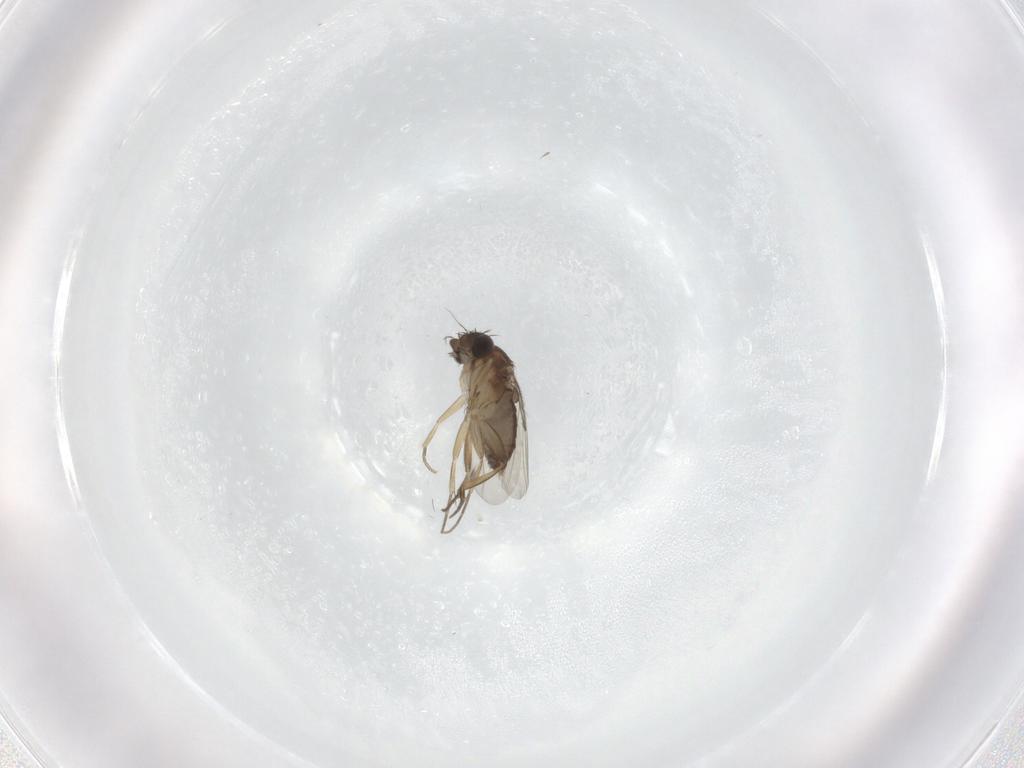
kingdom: Animalia
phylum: Arthropoda
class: Insecta
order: Diptera
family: Phoridae
